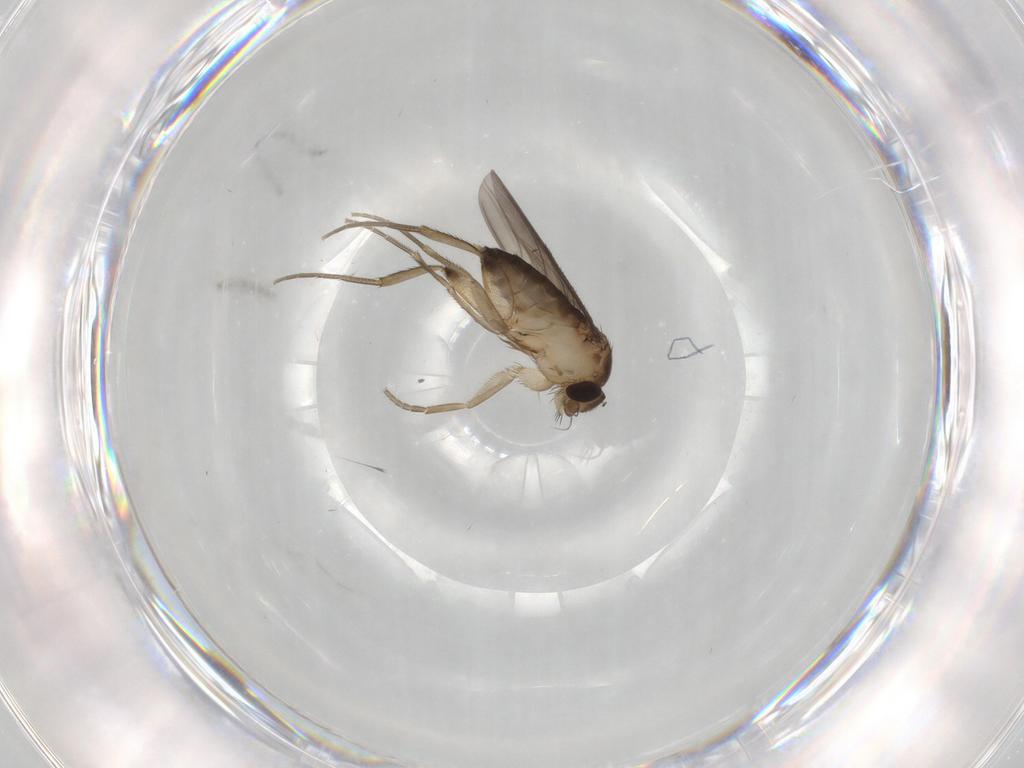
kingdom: Animalia
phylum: Arthropoda
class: Insecta
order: Diptera
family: Phoridae
